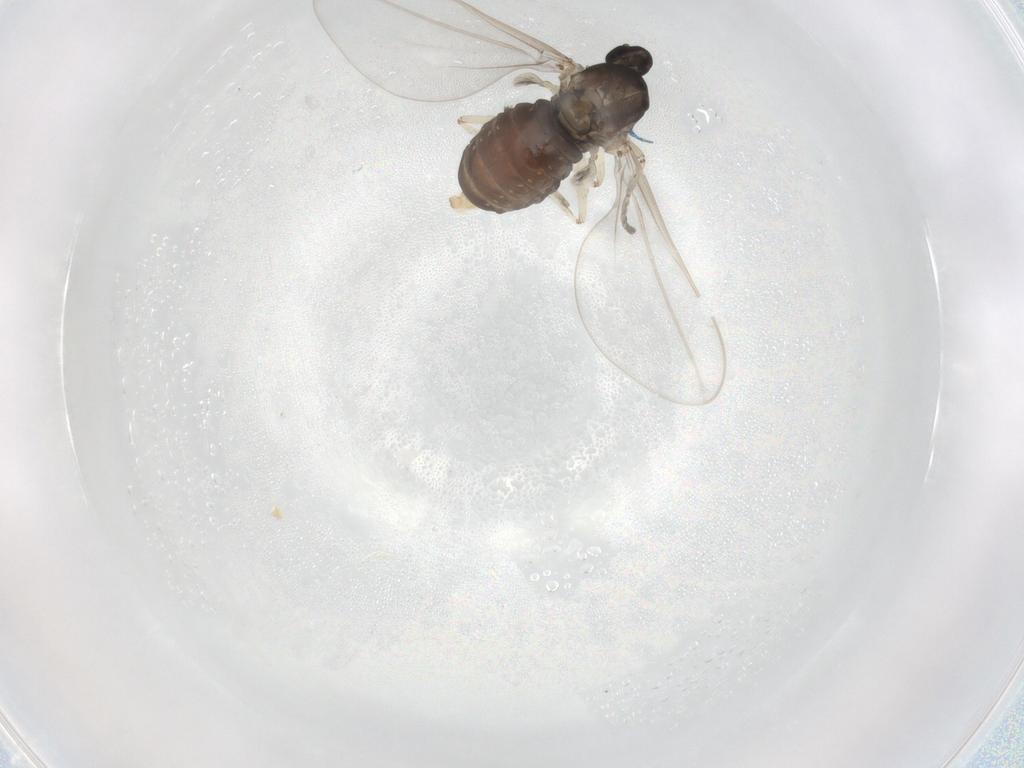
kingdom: Animalia
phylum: Arthropoda
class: Insecta
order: Diptera
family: Cecidomyiidae
